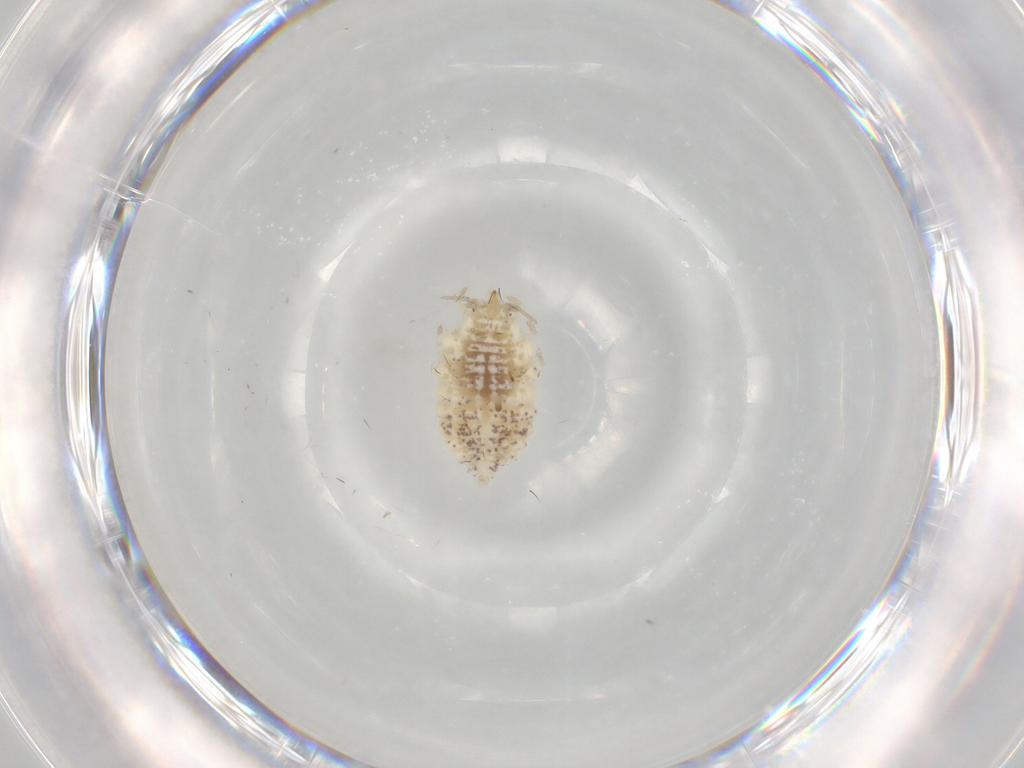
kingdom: Animalia
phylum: Arthropoda
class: Insecta
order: Neuroptera
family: Coniopterygidae
